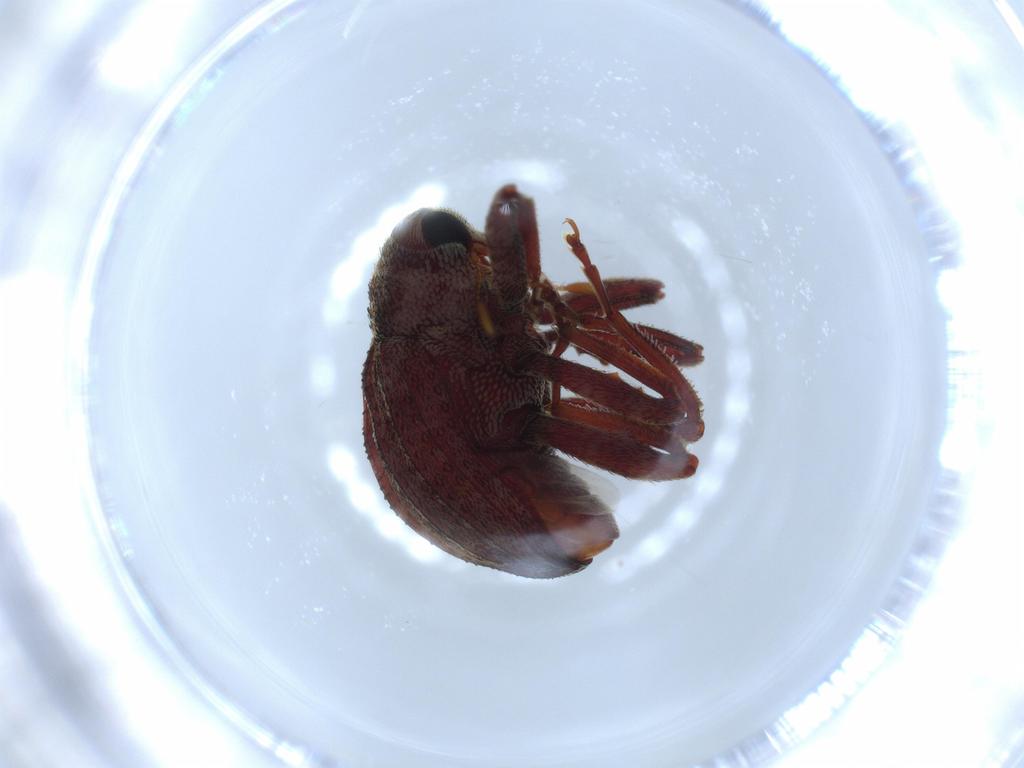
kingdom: Animalia
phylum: Arthropoda
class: Insecta
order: Coleoptera
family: Curculionidae
